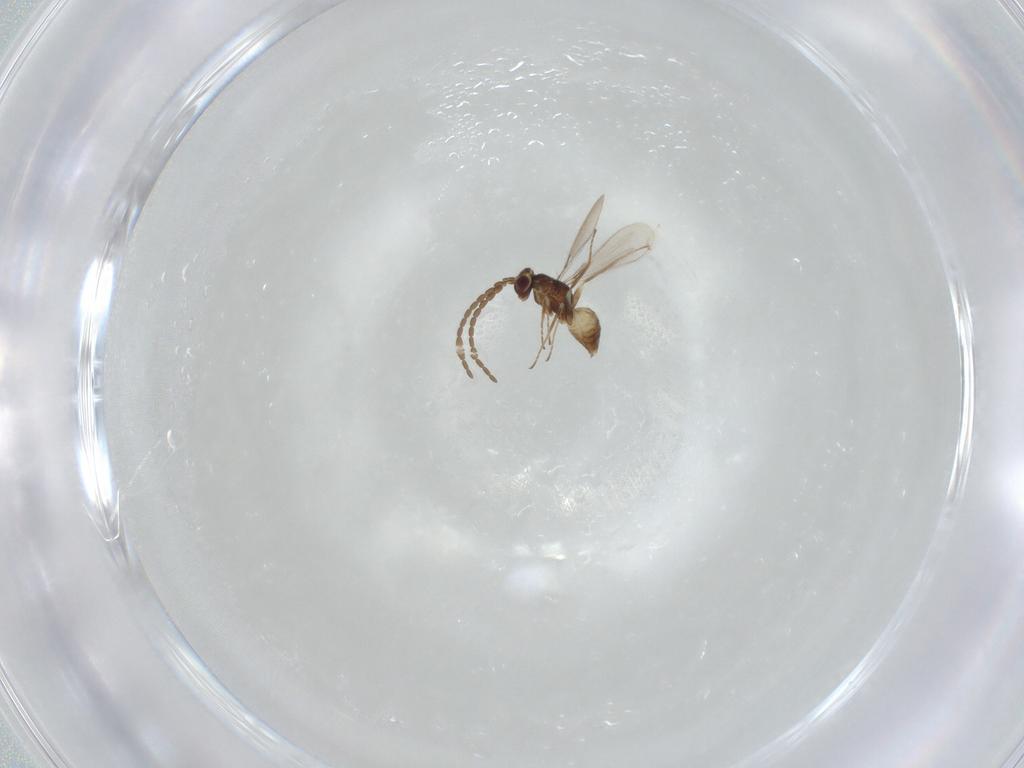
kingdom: Animalia
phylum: Arthropoda
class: Insecta
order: Hymenoptera
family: Mymaridae
